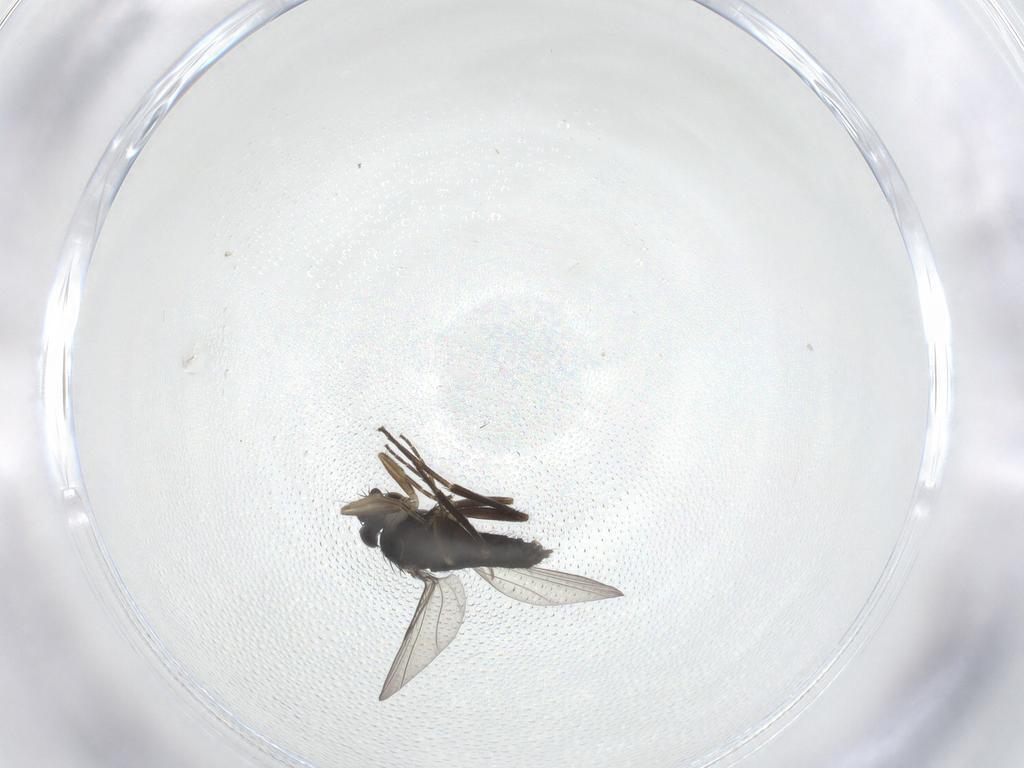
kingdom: Animalia
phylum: Arthropoda
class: Insecta
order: Diptera
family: Phoridae
